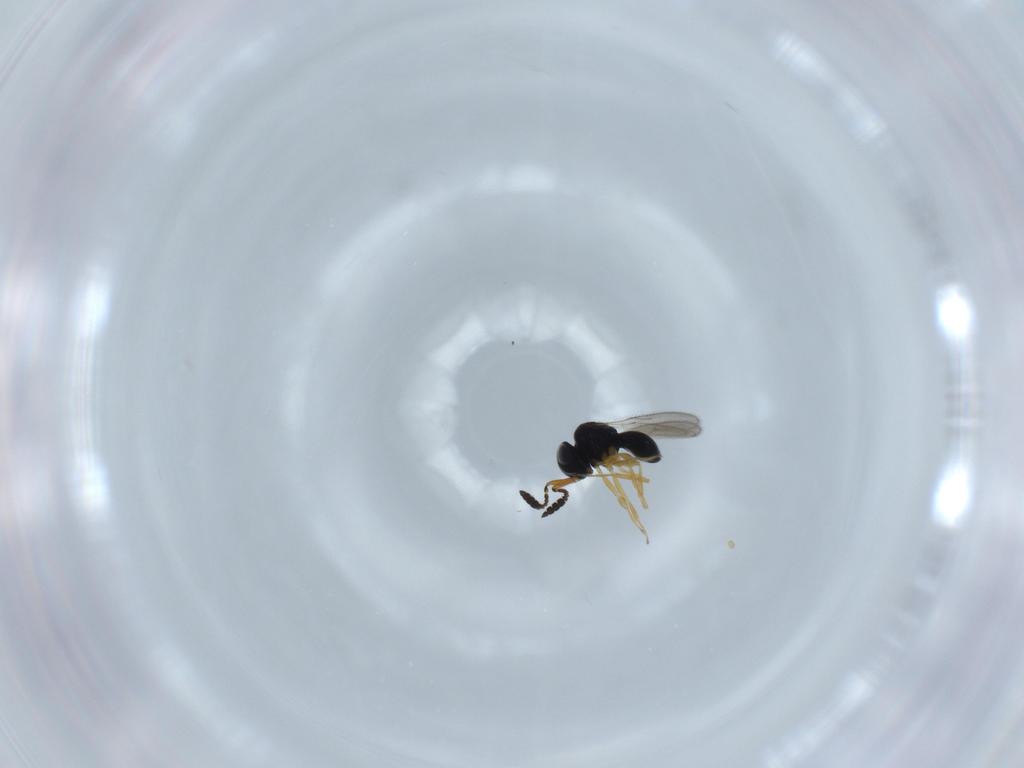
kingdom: Animalia
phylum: Arthropoda
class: Insecta
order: Hymenoptera
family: Scelionidae
